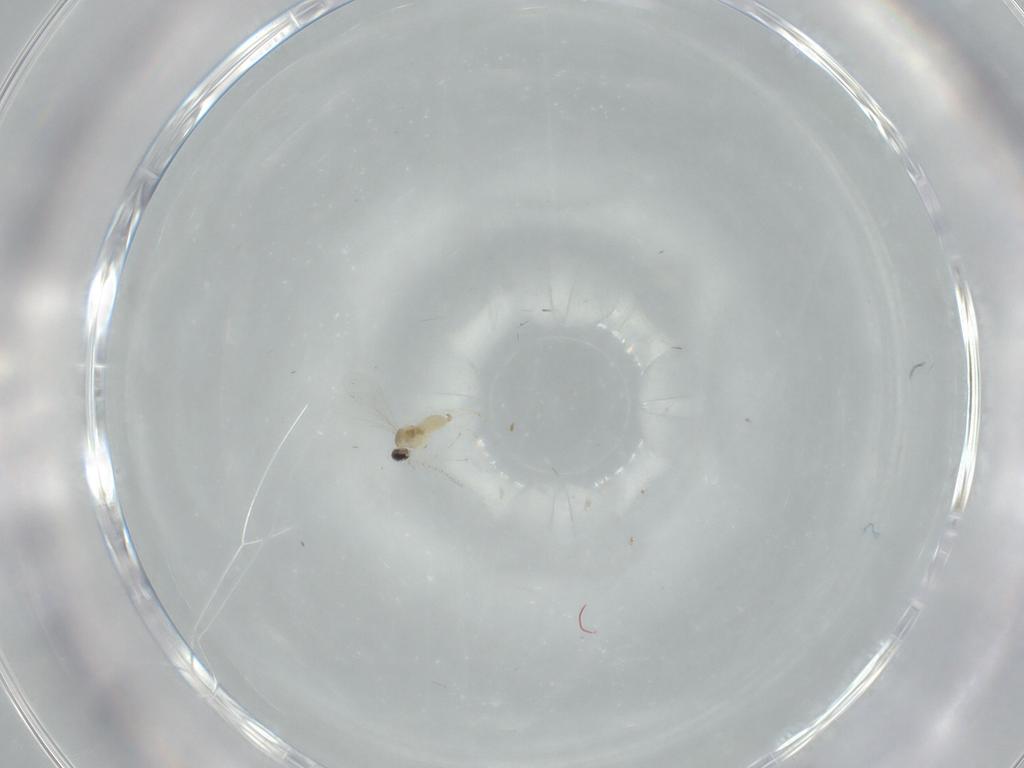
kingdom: Animalia
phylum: Arthropoda
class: Insecta
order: Diptera
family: Cecidomyiidae
